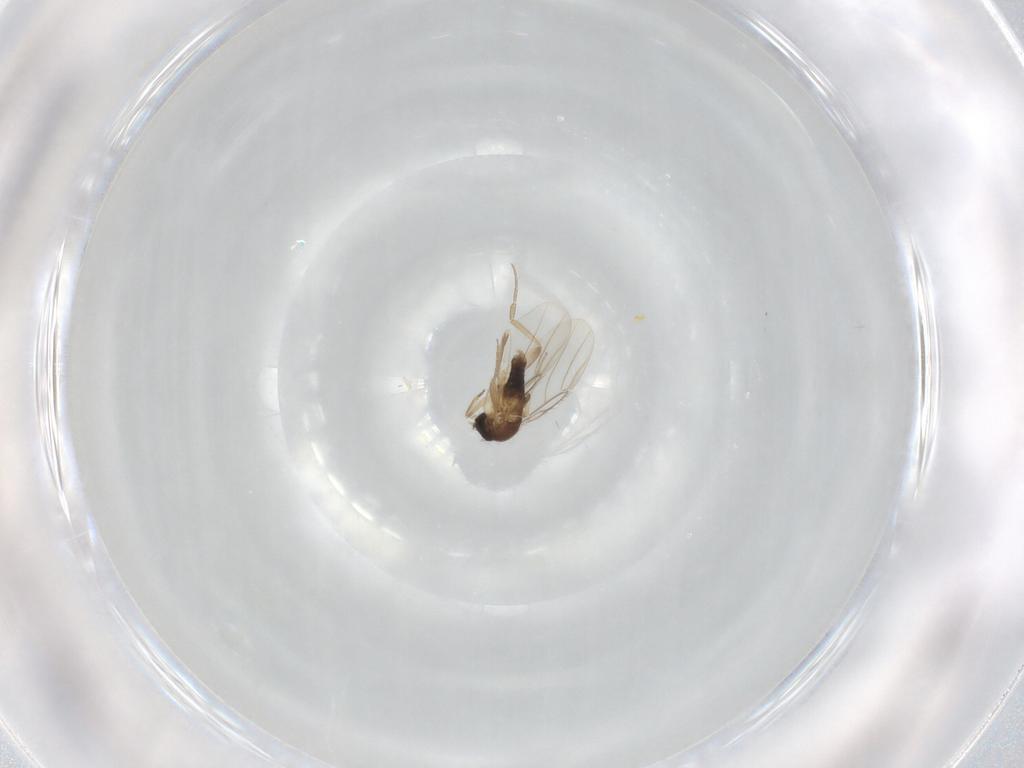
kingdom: Animalia
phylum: Arthropoda
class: Insecta
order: Diptera
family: Phoridae
